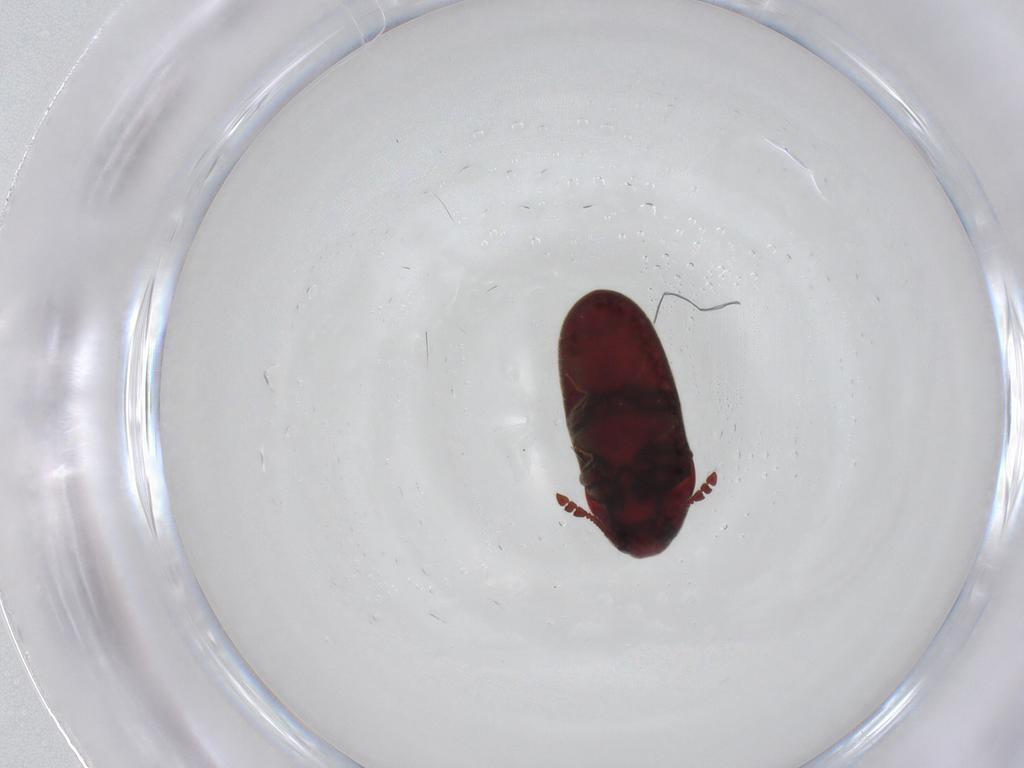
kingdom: Animalia
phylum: Arthropoda
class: Insecta
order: Coleoptera
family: Throscidae
